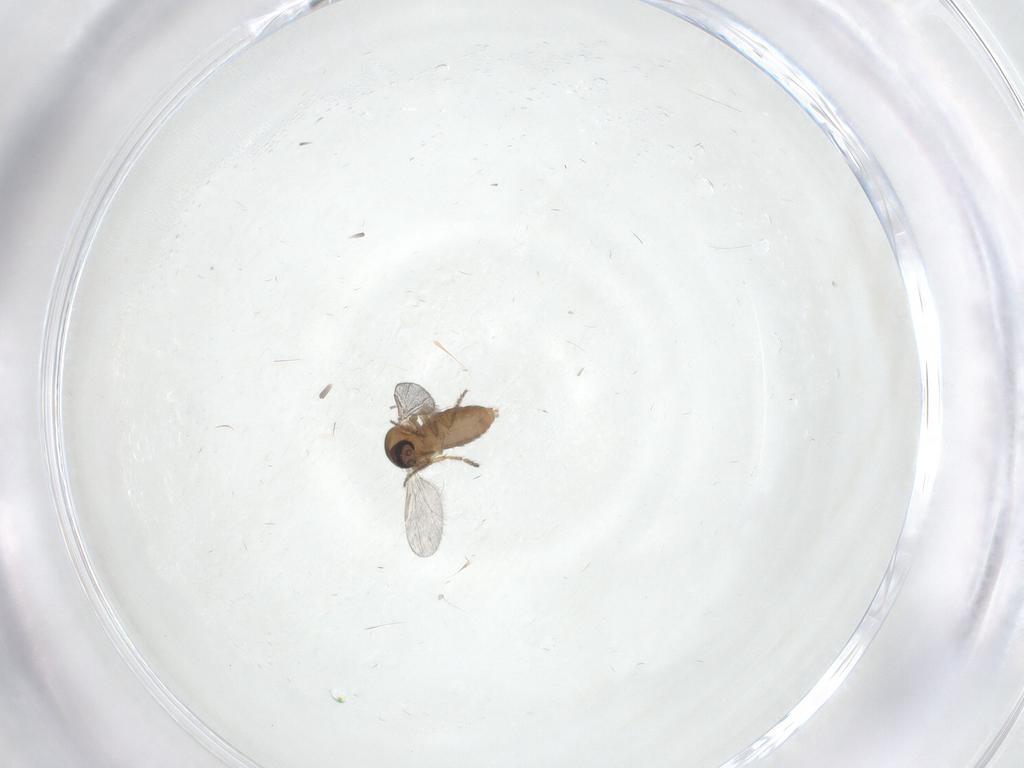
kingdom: Animalia
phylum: Arthropoda
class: Insecta
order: Diptera
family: Ceratopogonidae
